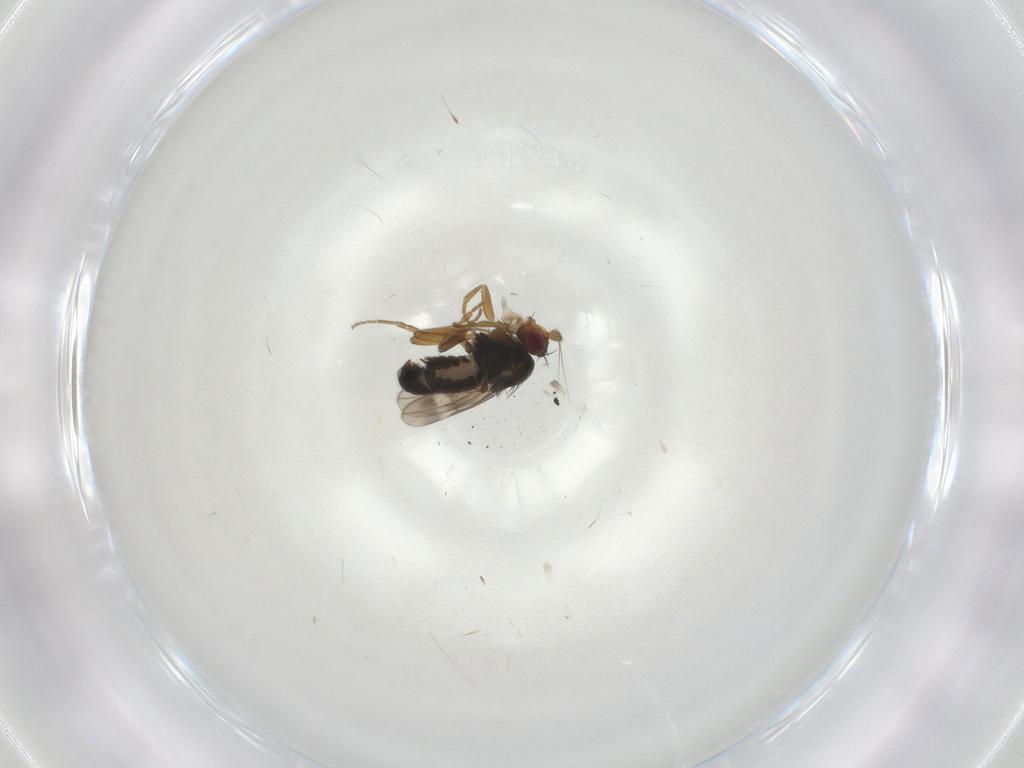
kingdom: Animalia
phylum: Arthropoda
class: Insecta
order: Diptera
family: Sphaeroceridae
